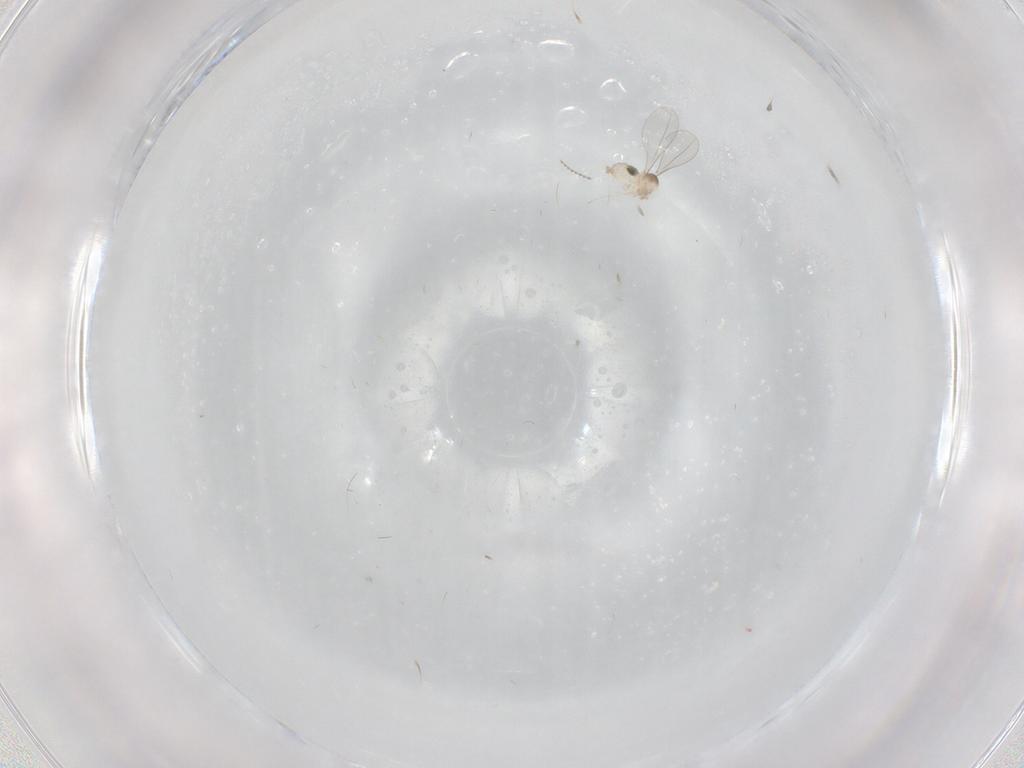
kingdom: Animalia
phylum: Arthropoda
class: Insecta
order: Diptera
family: Cecidomyiidae
